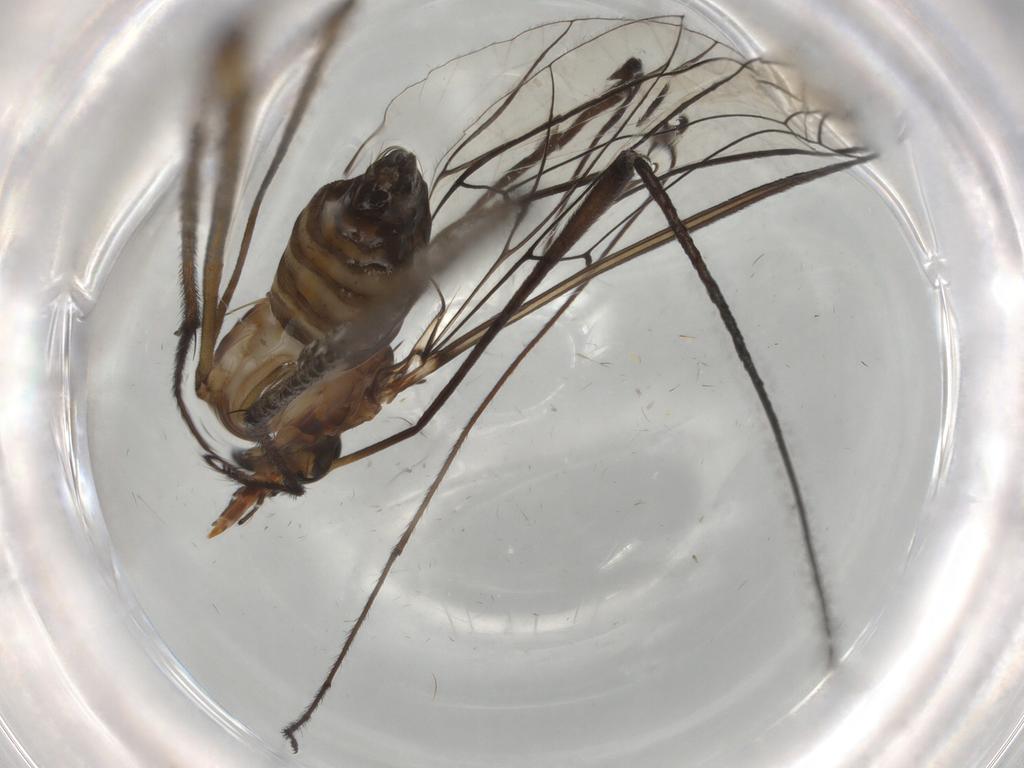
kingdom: Animalia
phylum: Arthropoda
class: Insecta
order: Diptera
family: Blephariceridae
